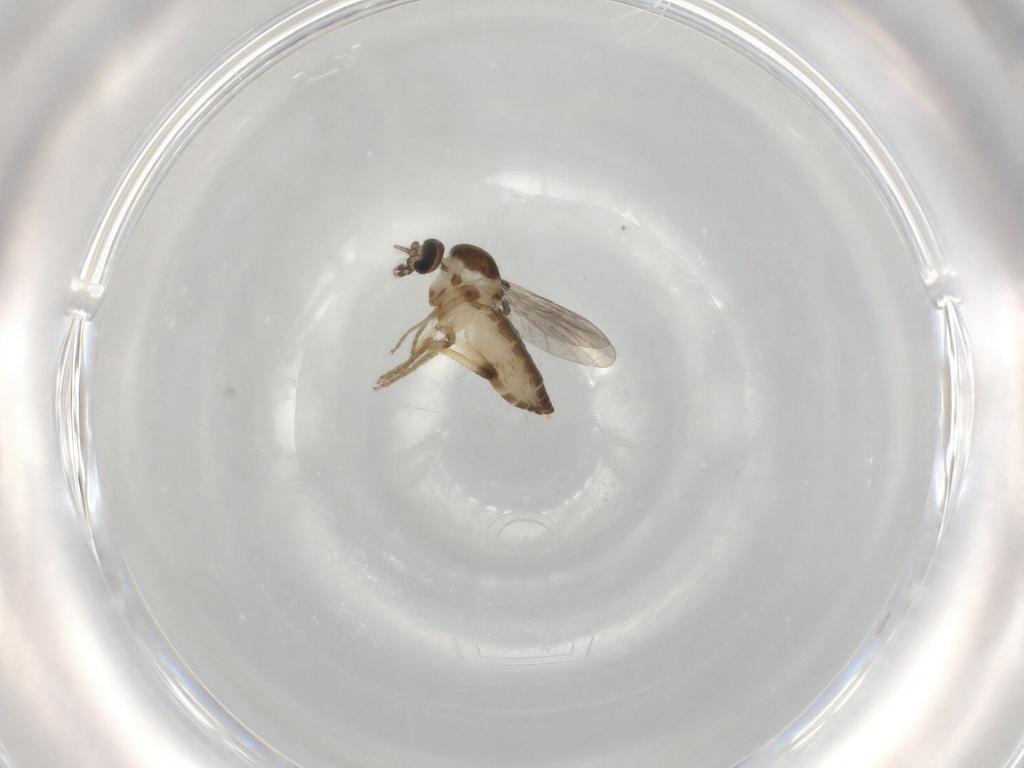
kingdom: Animalia
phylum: Arthropoda
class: Insecta
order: Diptera
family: Ceratopogonidae
